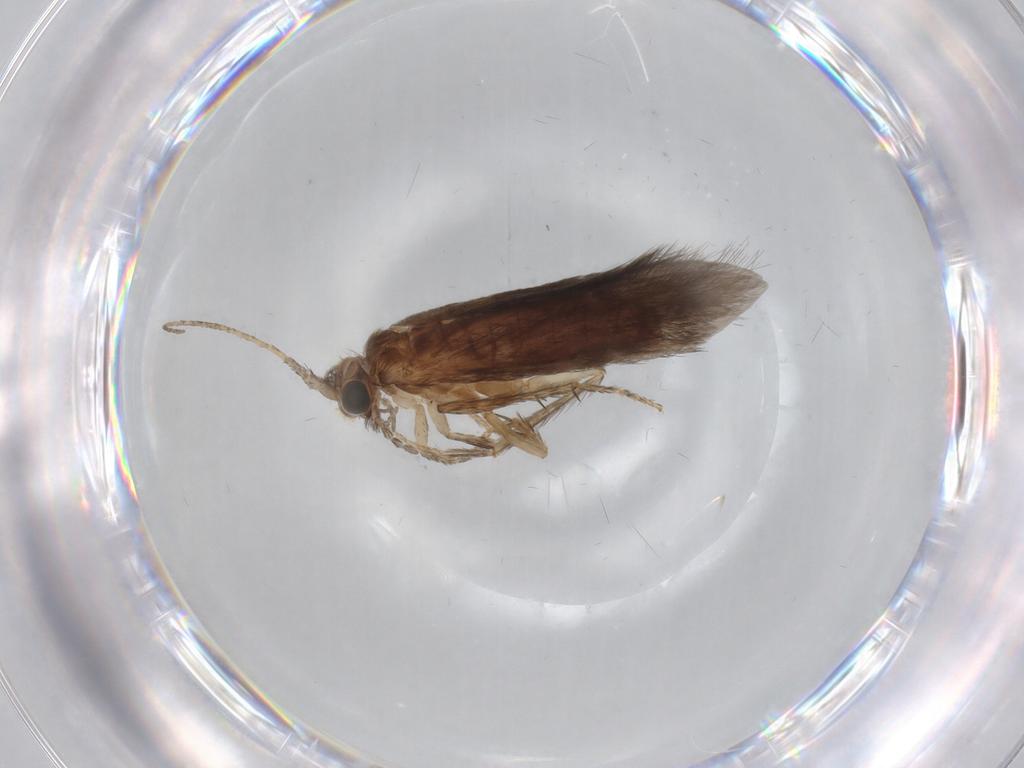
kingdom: Animalia
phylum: Arthropoda
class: Insecta
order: Trichoptera
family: Glossosomatidae
